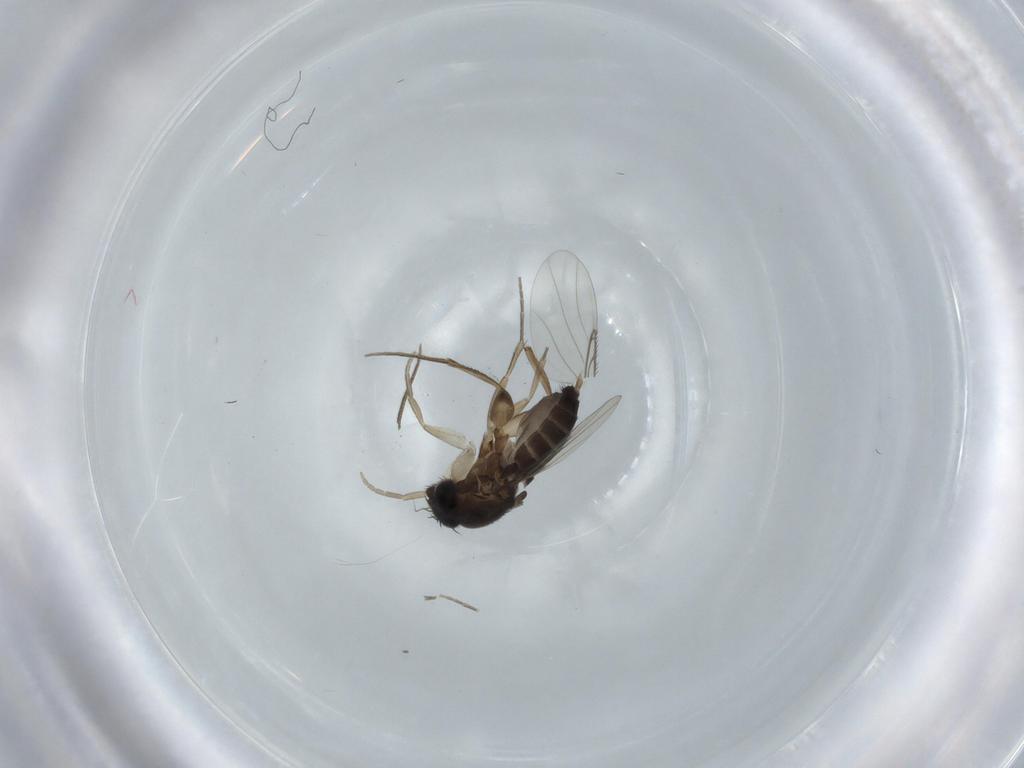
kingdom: Animalia
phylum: Arthropoda
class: Insecta
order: Diptera
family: Phoridae
